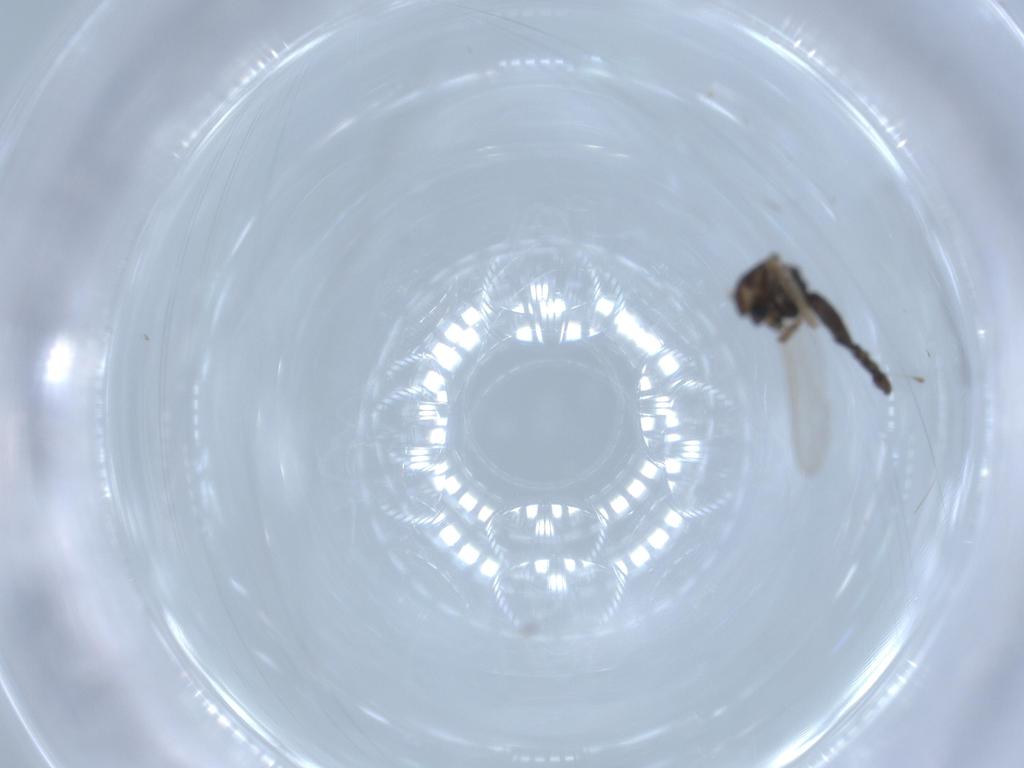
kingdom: Animalia
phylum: Arthropoda
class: Insecta
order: Diptera
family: Chironomidae
